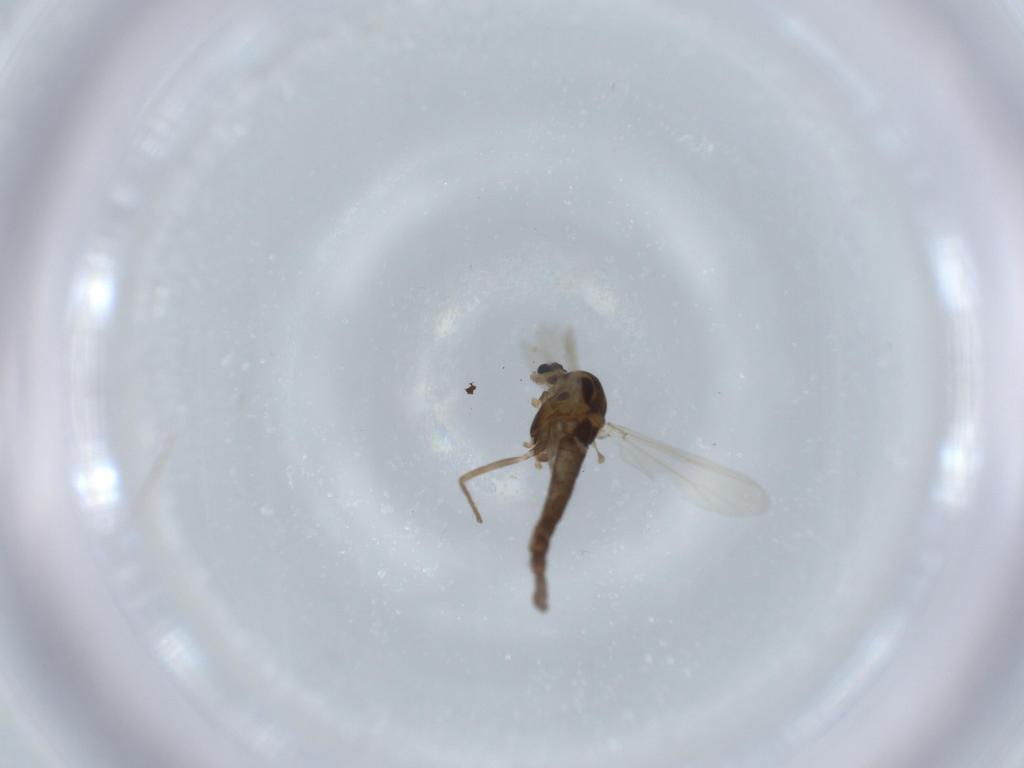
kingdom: Animalia
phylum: Arthropoda
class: Insecta
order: Diptera
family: Chironomidae
